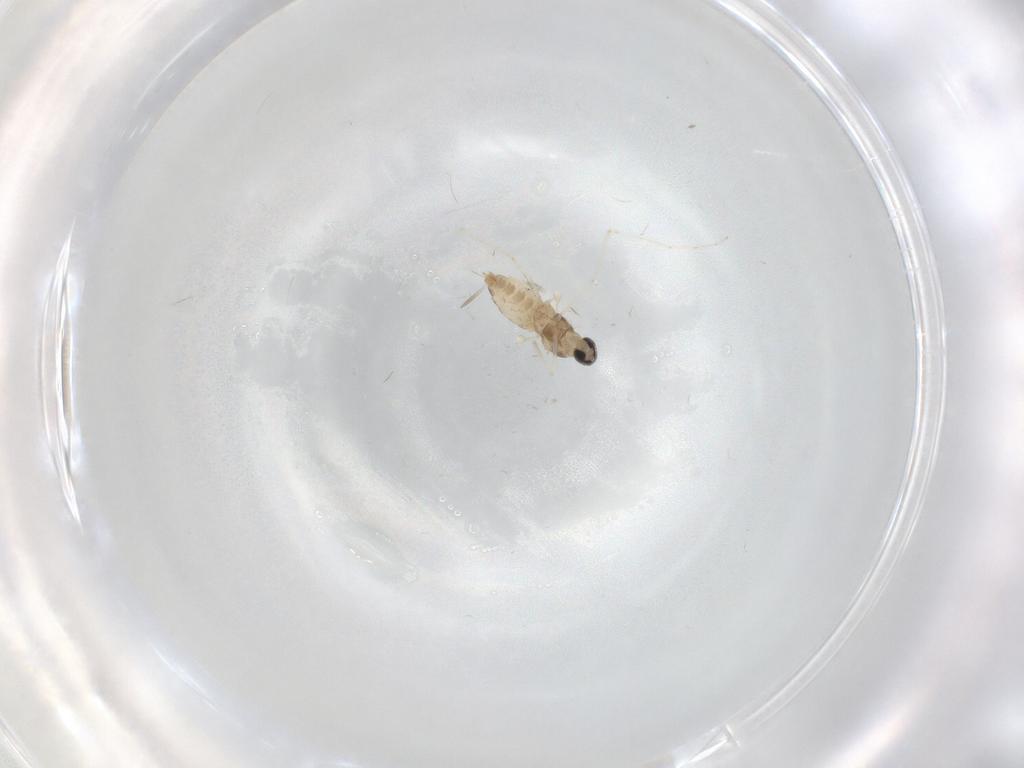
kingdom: Animalia
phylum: Arthropoda
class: Insecta
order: Diptera
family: Cecidomyiidae
